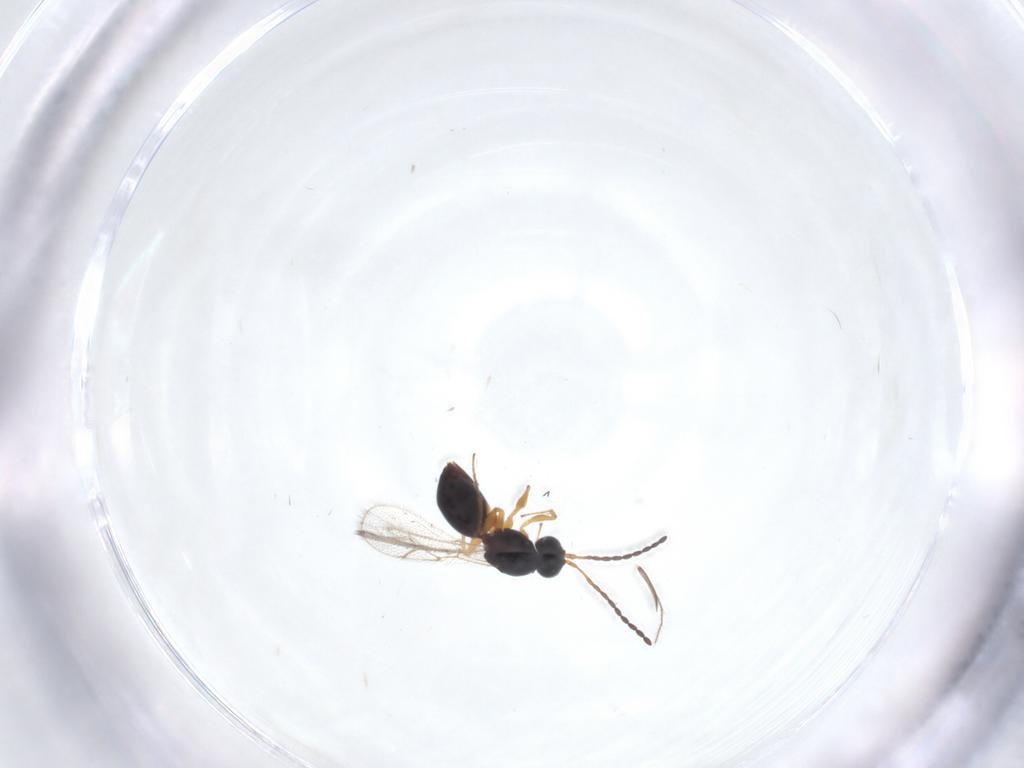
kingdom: Animalia
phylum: Arthropoda
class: Insecta
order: Hymenoptera
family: Figitidae
